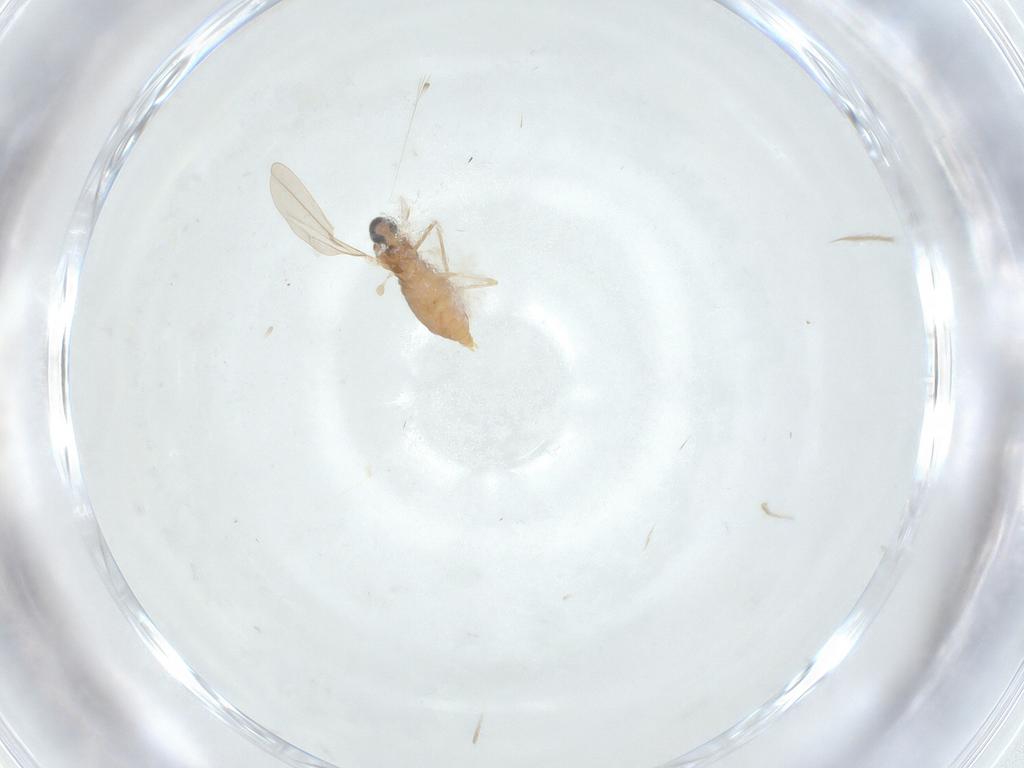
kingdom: Animalia
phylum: Arthropoda
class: Insecta
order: Diptera
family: Cecidomyiidae
